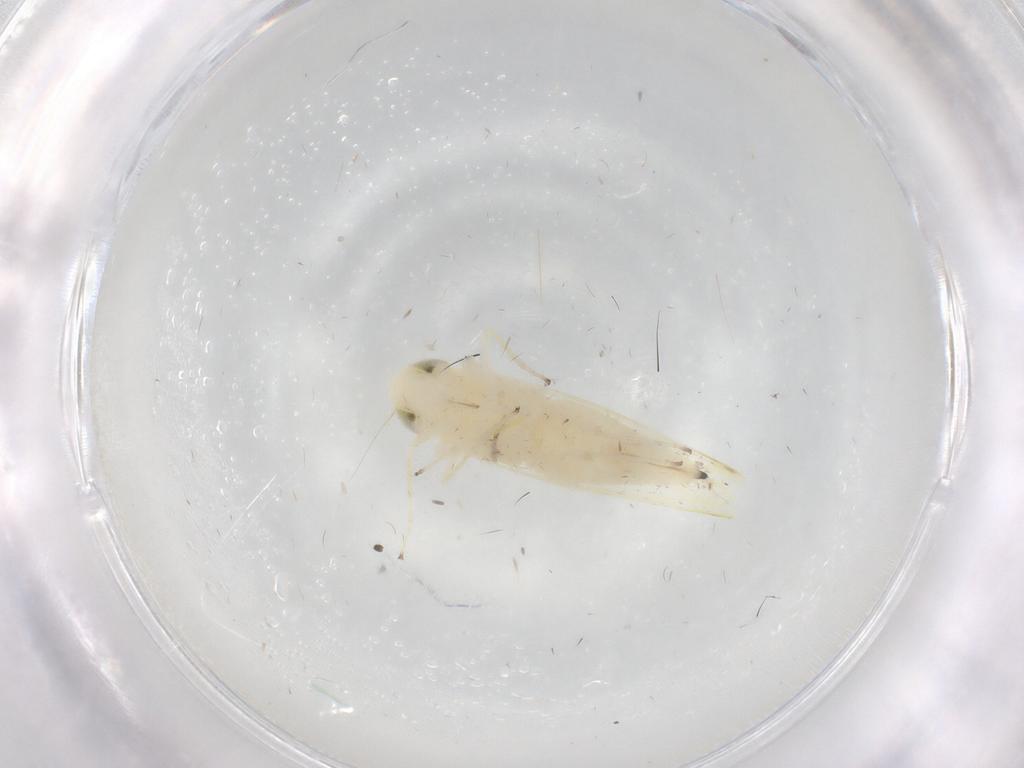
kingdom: Animalia
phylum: Arthropoda
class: Insecta
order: Hemiptera
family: Cicadellidae
